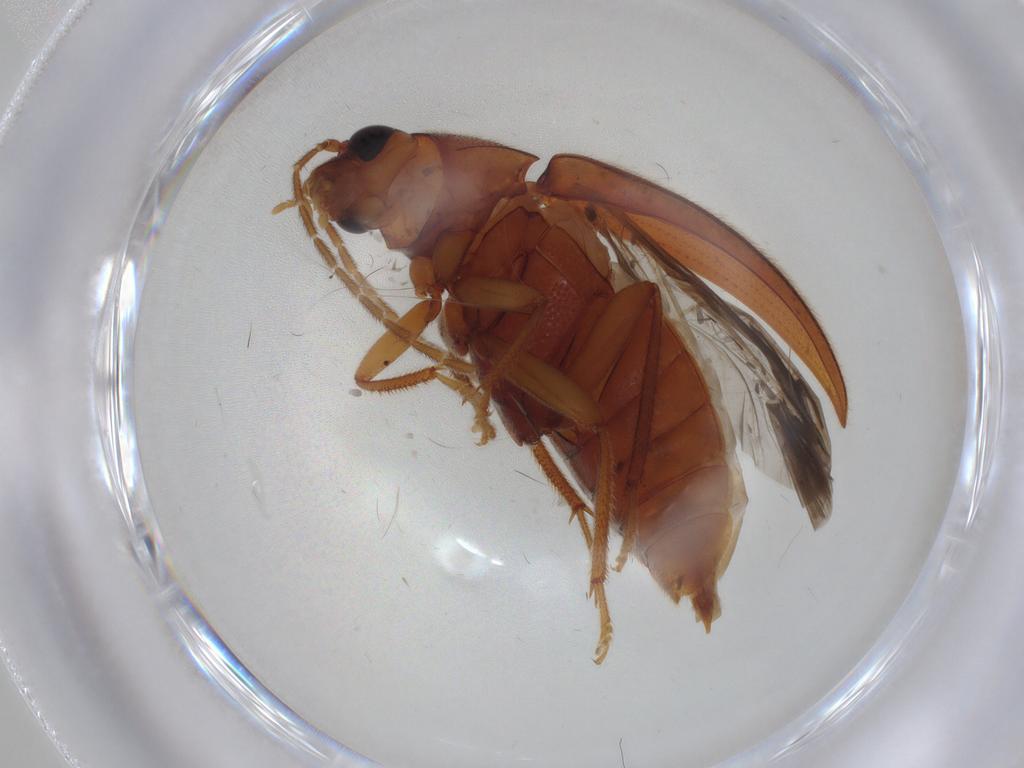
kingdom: Animalia
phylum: Arthropoda
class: Insecta
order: Coleoptera
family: Ptilodactylidae
